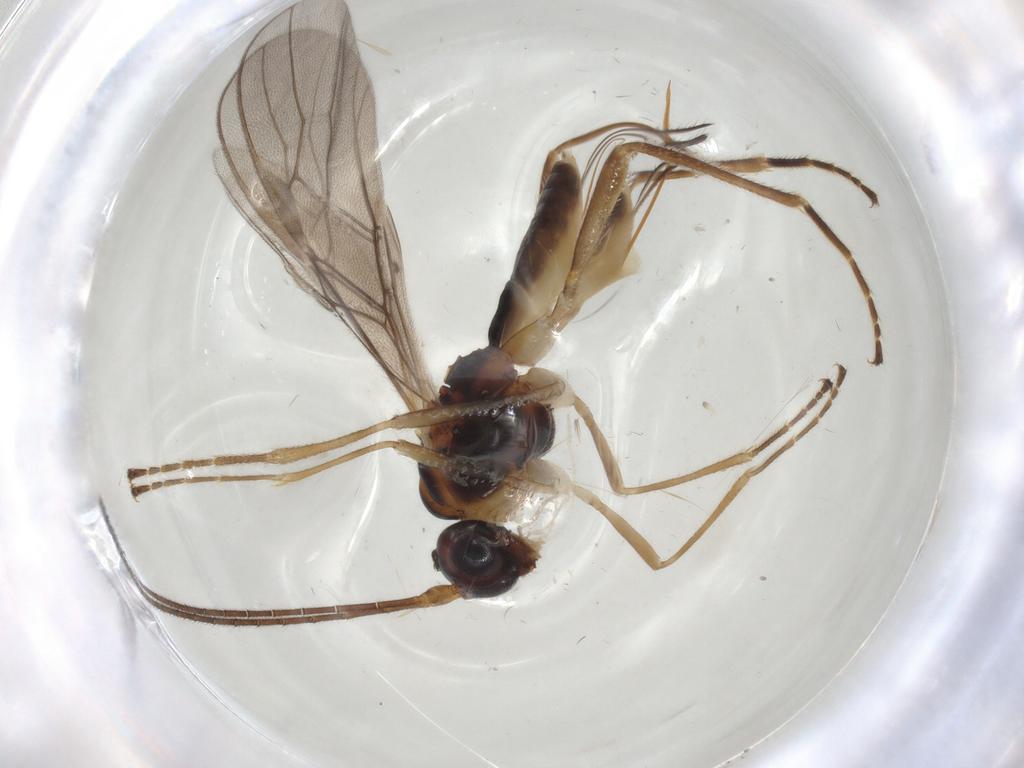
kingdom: Animalia
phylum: Arthropoda
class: Insecta
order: Hymenoptera
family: Braconidae
